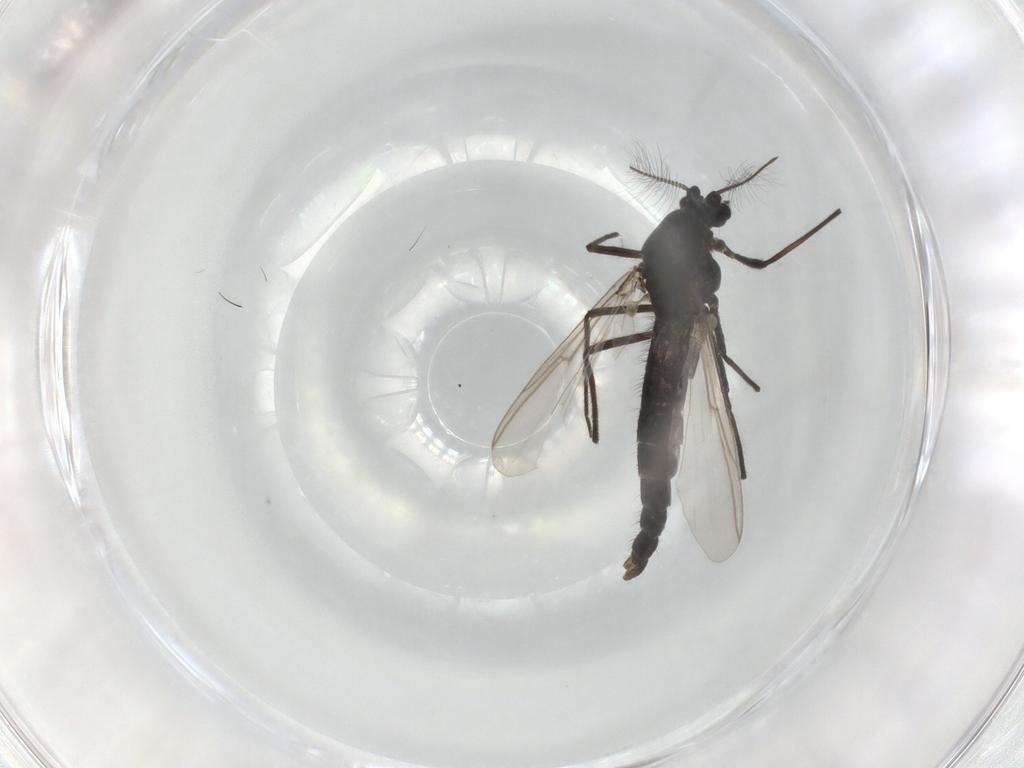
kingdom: Animalia
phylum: Arthropoda
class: Insecta
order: Diptera
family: Chironomidae
